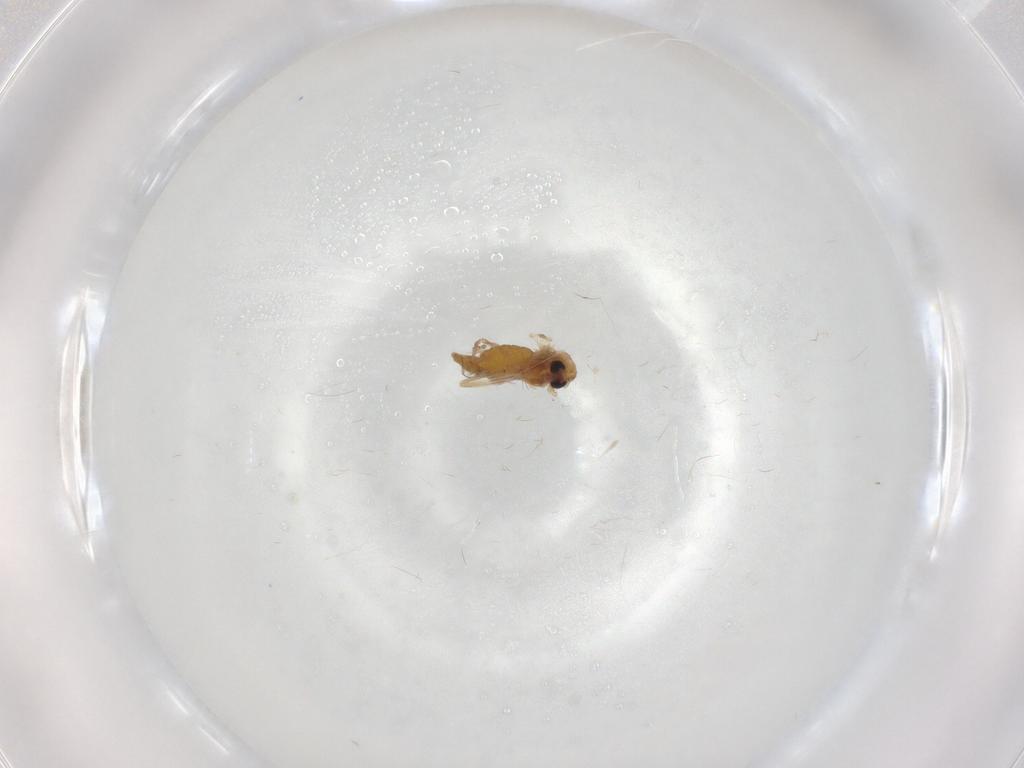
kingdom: Animalia
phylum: Arthropoda
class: Insecta
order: Diptera
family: Chironomidae
